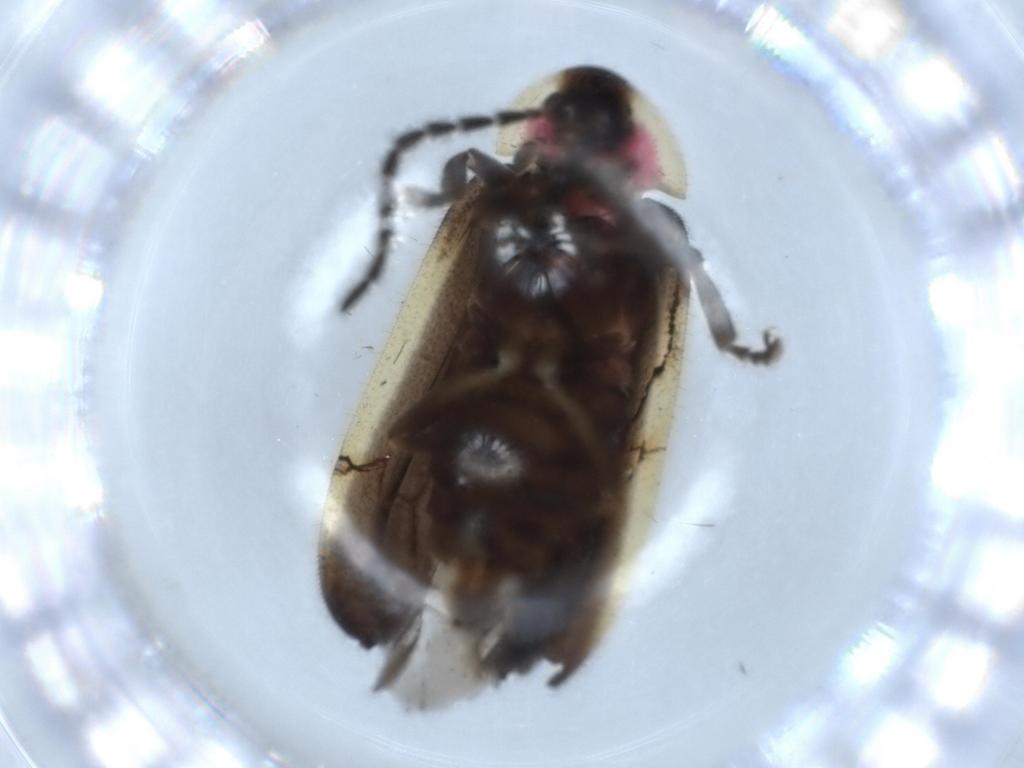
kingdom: Animalia
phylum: Arthropoda
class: Insecta
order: Coleoptera
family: Lampyridae
